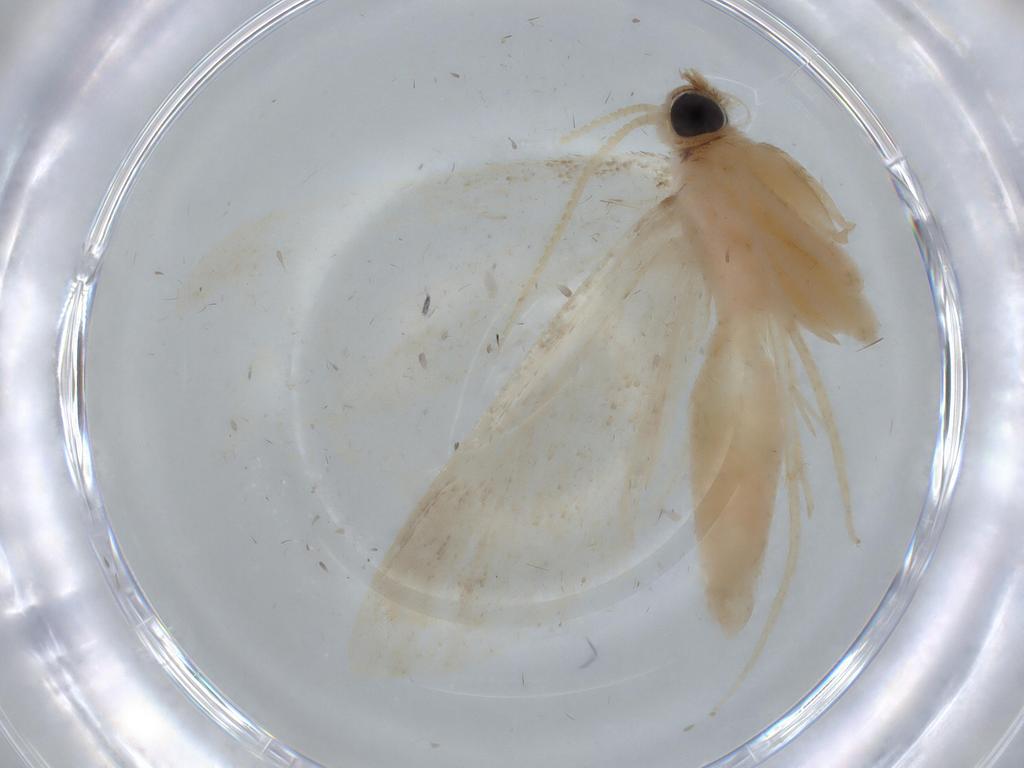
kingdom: Animalia
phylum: Arthropoda
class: Insecta
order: Lepidoptera
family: Crambidae
